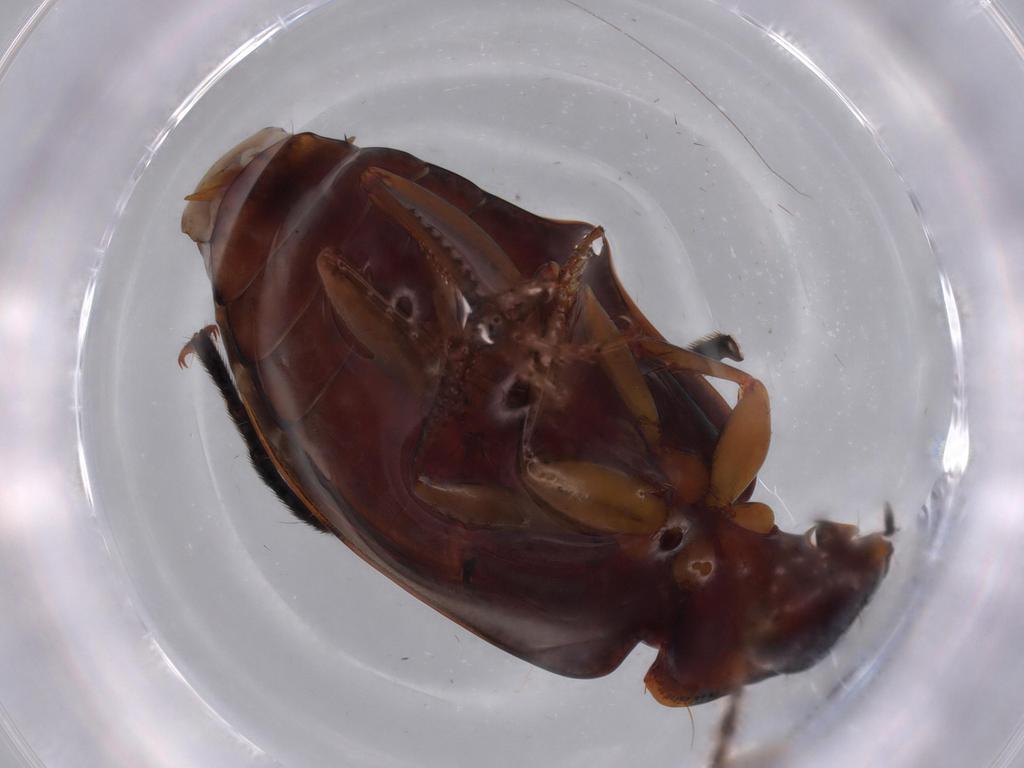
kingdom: Animalia
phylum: Arthropoda
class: Insecta
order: Coleoptera
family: Carabidae
